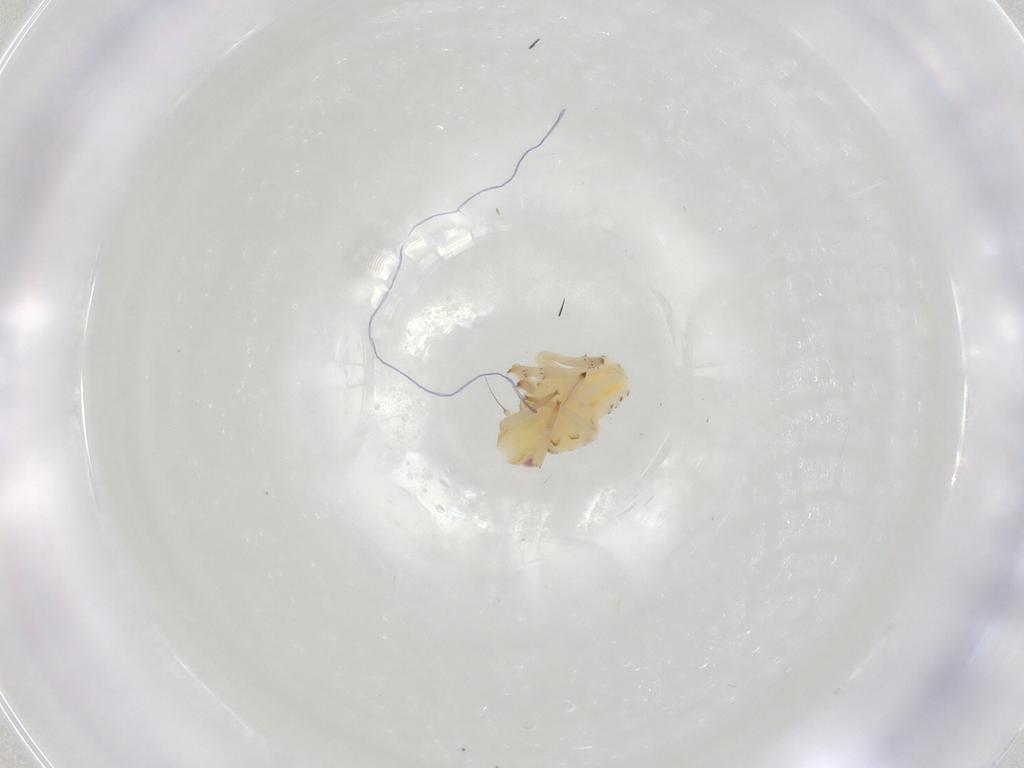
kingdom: Animalia
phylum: Arthropoda
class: Insecta
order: Hemiptera
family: Tropiduchidae
